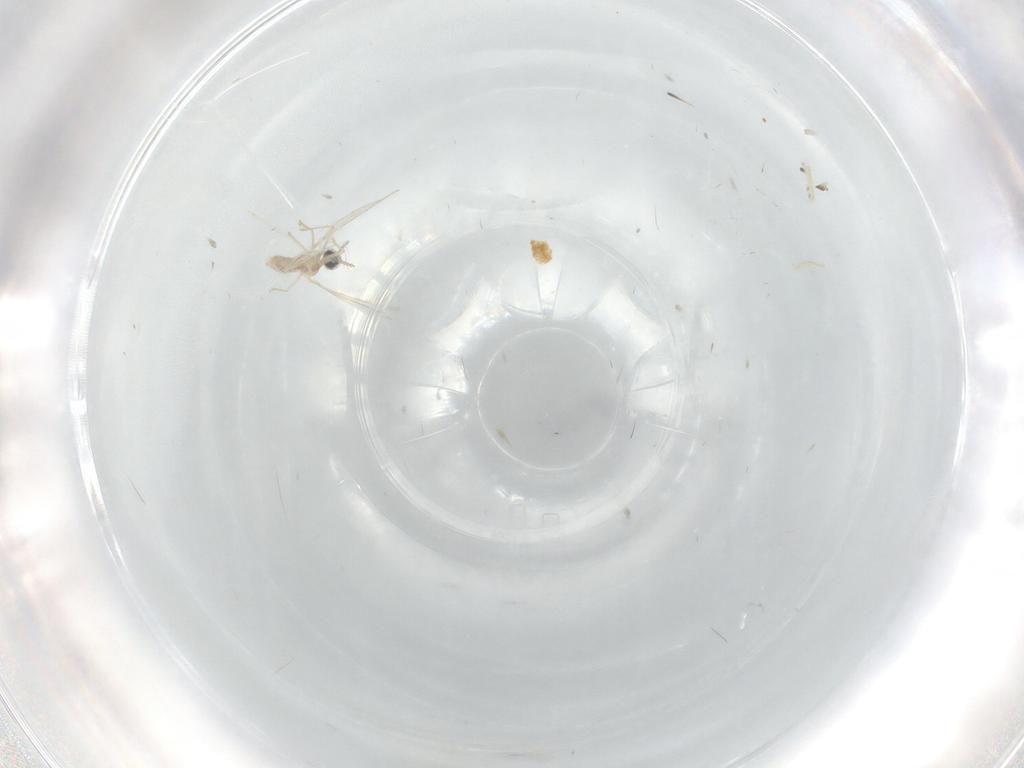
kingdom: Animalia
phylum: Arthropoda
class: Insecta
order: Diptera
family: Sciaridae
